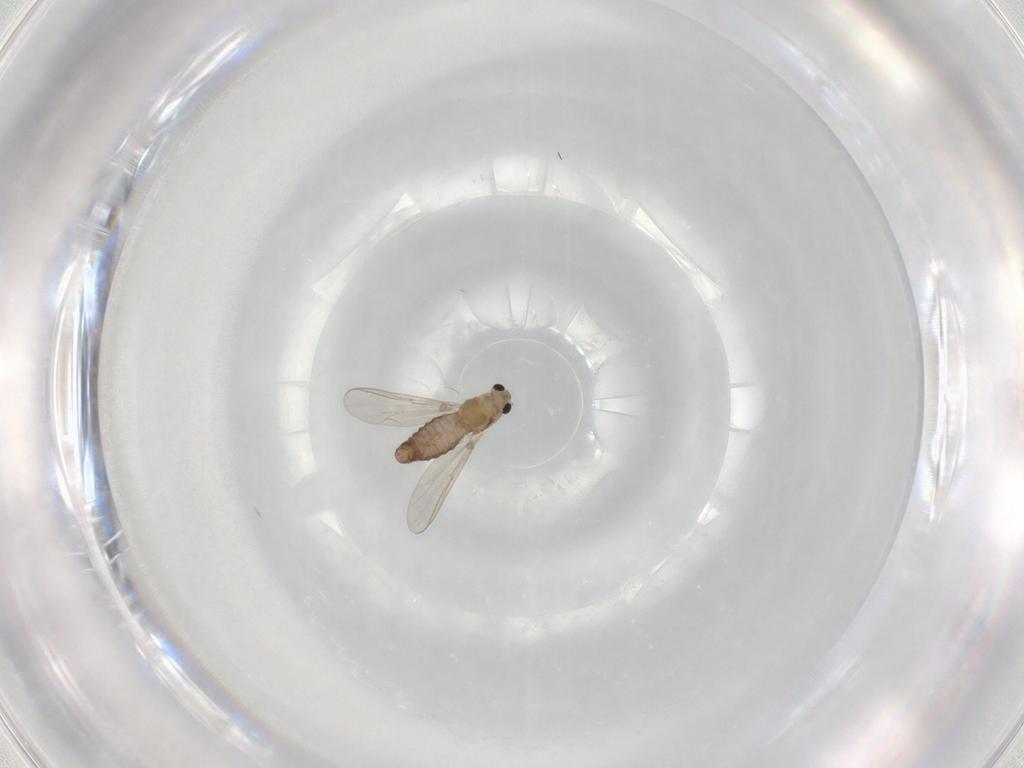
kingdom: Animalia
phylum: Arthropoda
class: Insecta
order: Diptera
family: Chironomidae
